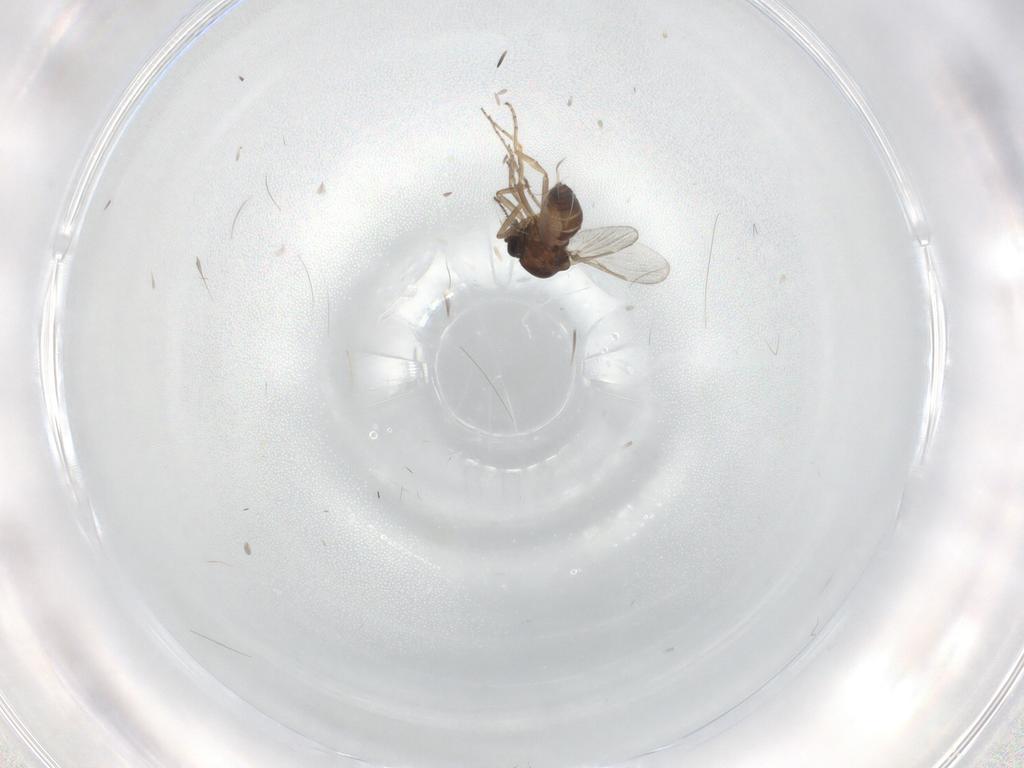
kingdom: Animalia
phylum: Arthropoda
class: Insecta
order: Diptera
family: Ceratopogonidae
